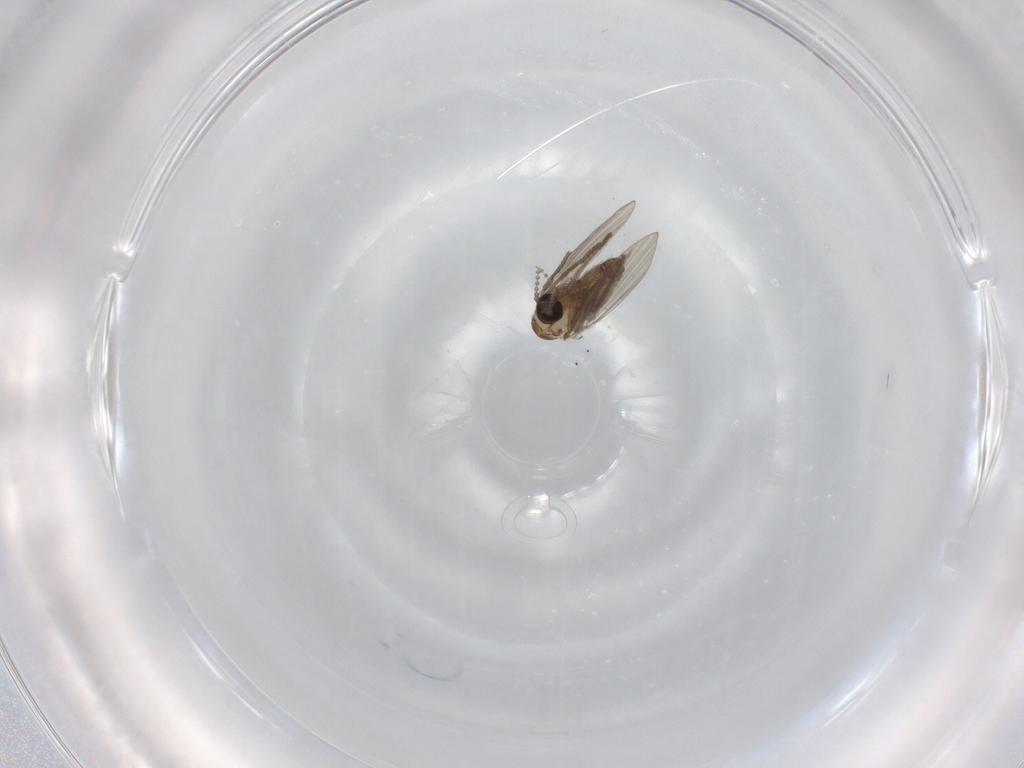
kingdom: Animalia
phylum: Arthropoda
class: Insecta
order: Diptera
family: Psychodidae
